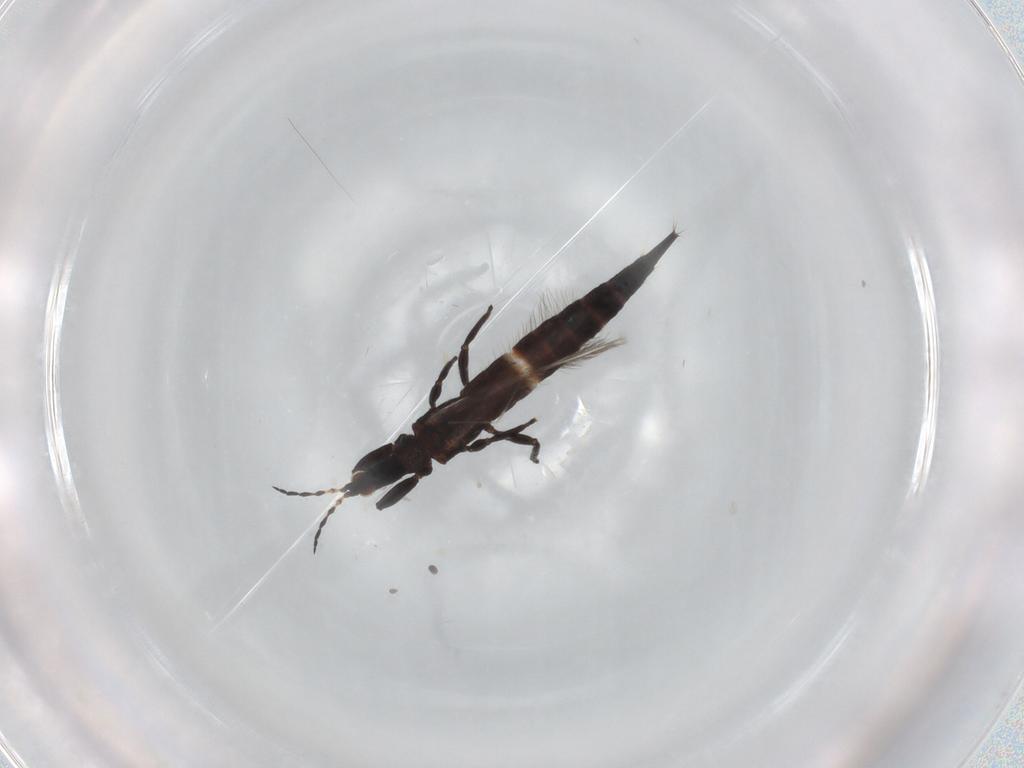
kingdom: Animalia
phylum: Arthropoda
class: Insecta
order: Thysanoptera
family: Phlaeothripidae
